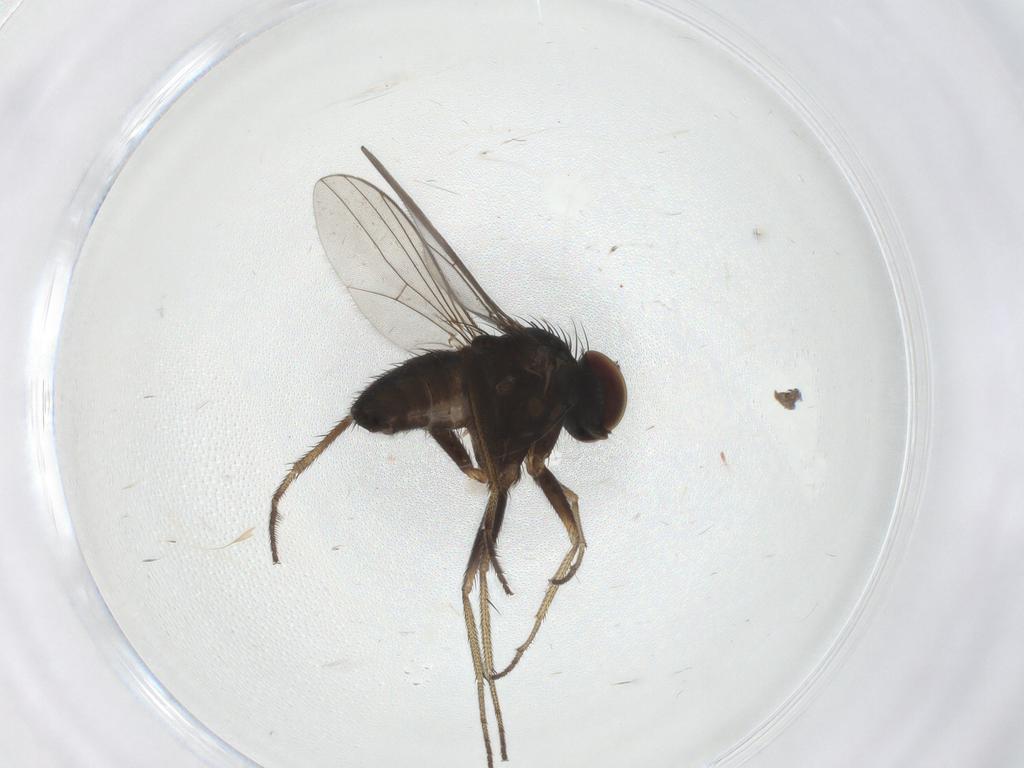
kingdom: Animalia
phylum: Arthropoda
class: Insecta
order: Diptera
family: Dolichopodidae
